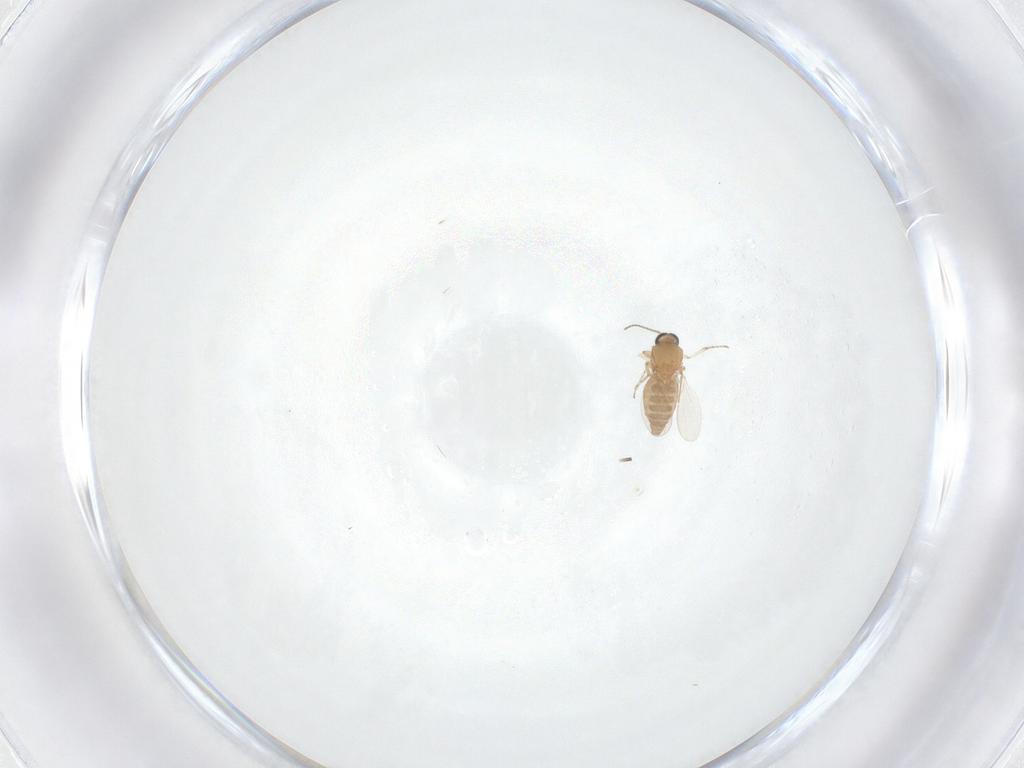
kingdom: Animalia
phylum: Arthropoda
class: Insecta
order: Diptera
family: Ceratopogonidae
